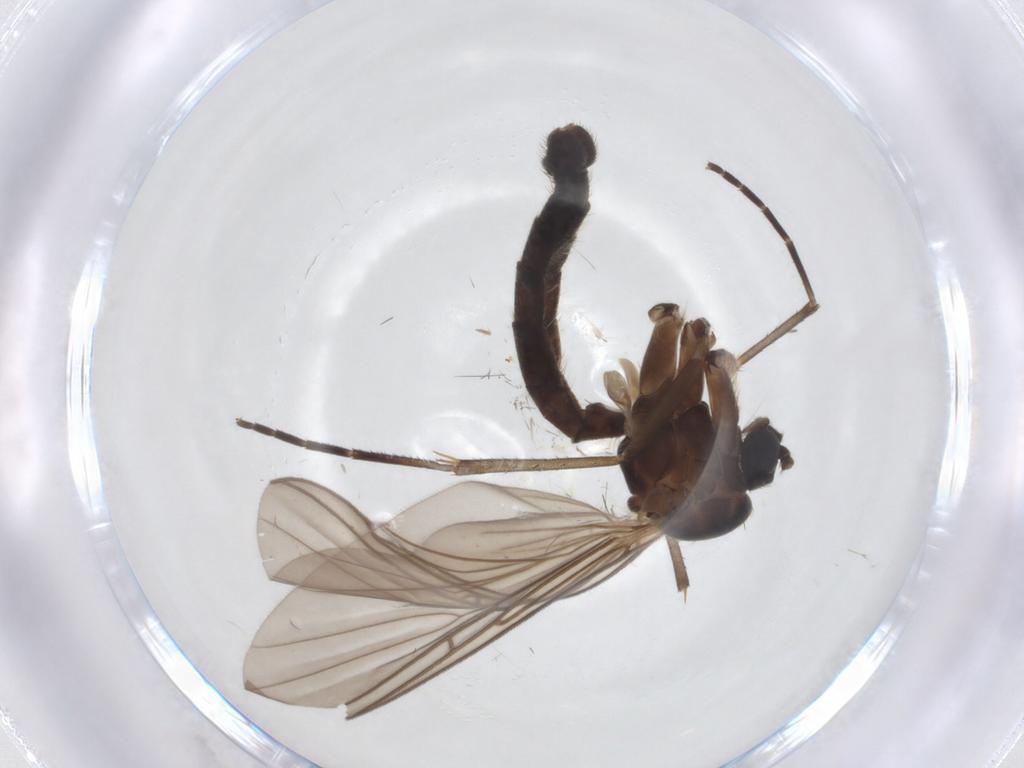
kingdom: Animalia
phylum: Arthropoda
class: Insecta
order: Diptera
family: Mycetophilidae
